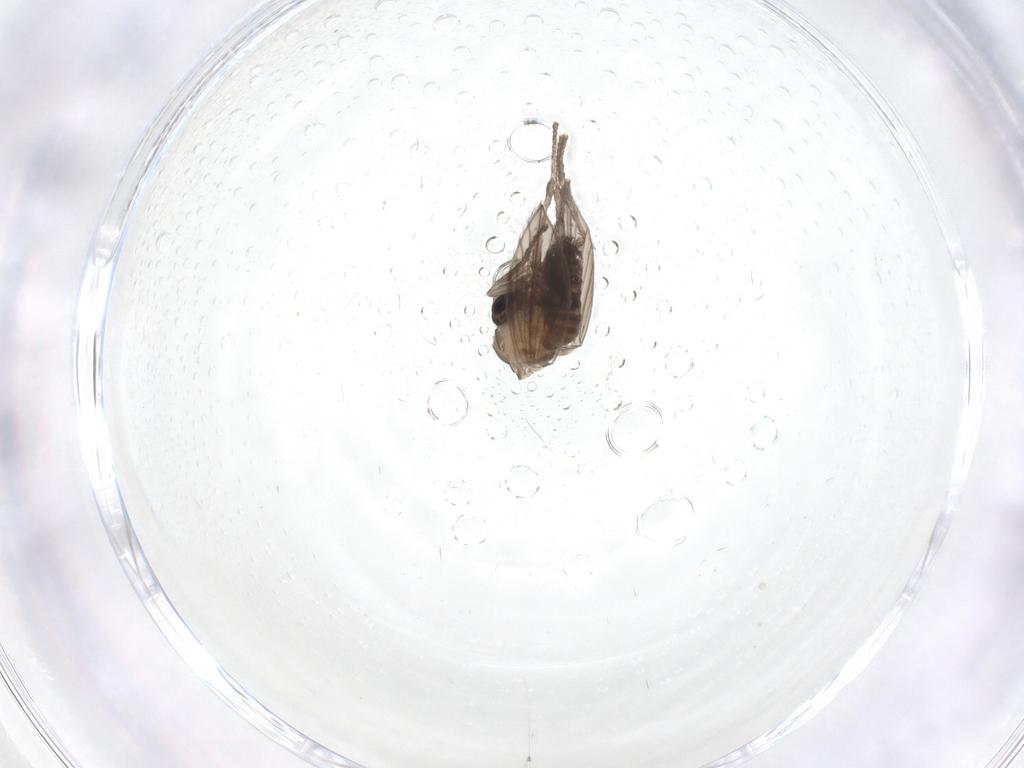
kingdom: Animalia
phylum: Arthropoda
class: Insecta
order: Diptera
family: Psychodidae
